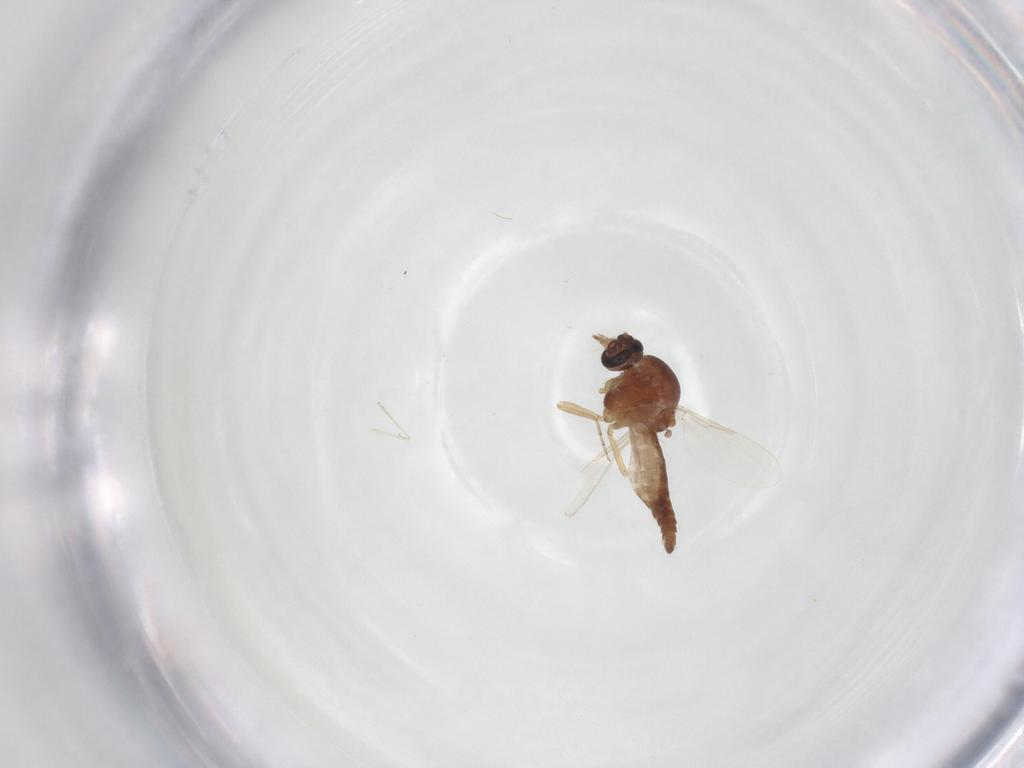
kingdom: Animalia
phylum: Arthropoda
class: Insecta
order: Diptera
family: Ceratopogonidae
